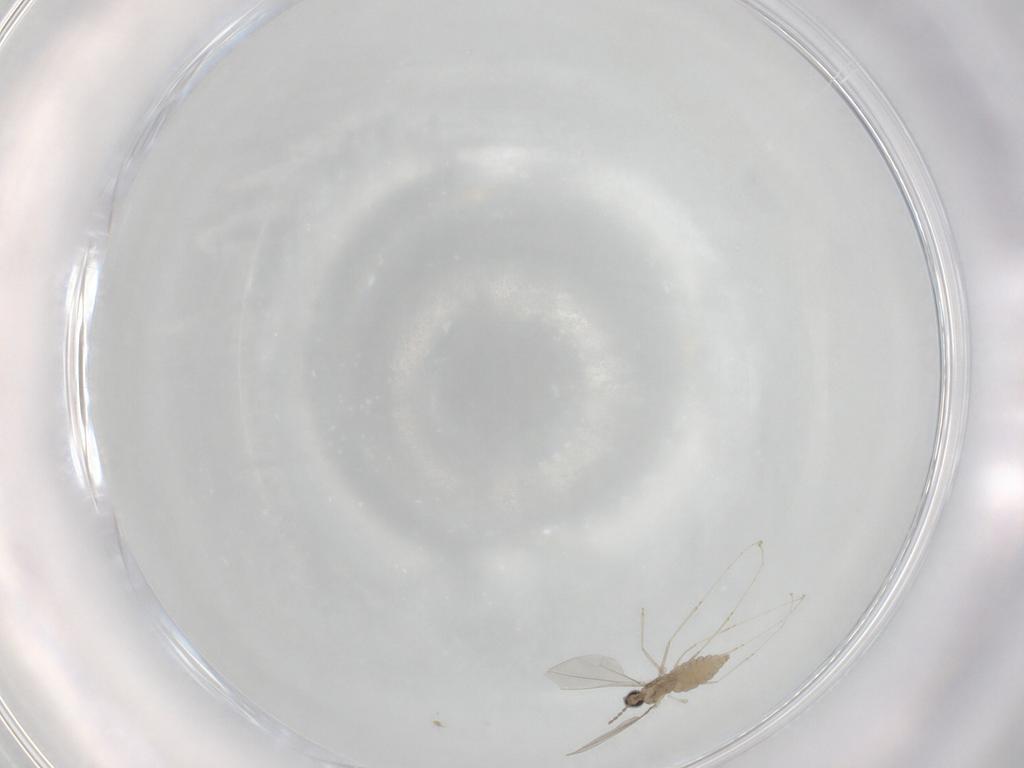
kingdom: Animalia
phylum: Arthropoda
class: Insecta
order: Diptera
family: Cecidomyiidae
